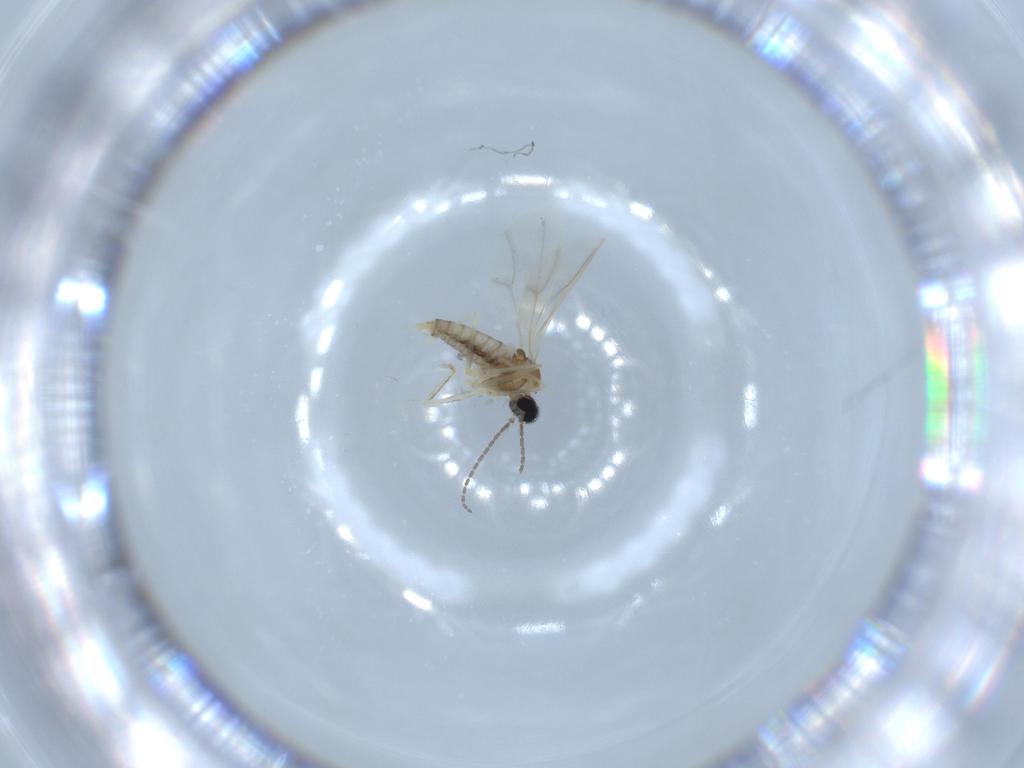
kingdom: Animalia
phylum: Arthropoda
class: Insecta
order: Diptera
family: Cecidomyiidae
